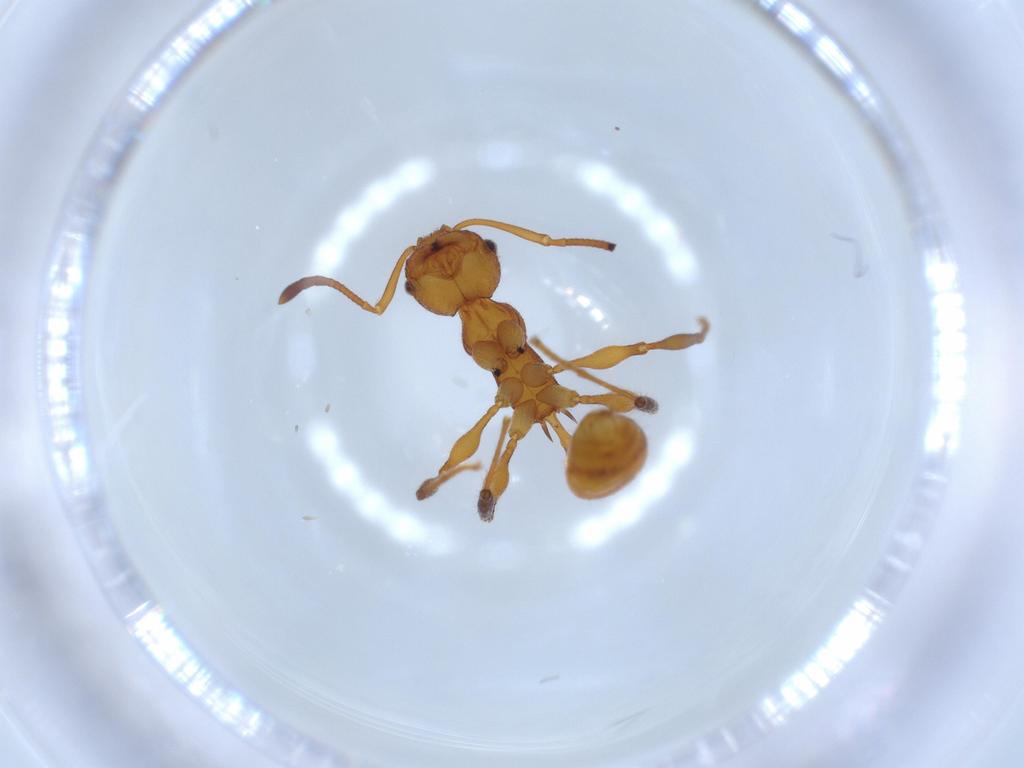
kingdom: Animalia
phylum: Arthropoda
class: Insecta
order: Hymenoptera
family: Formicidae
